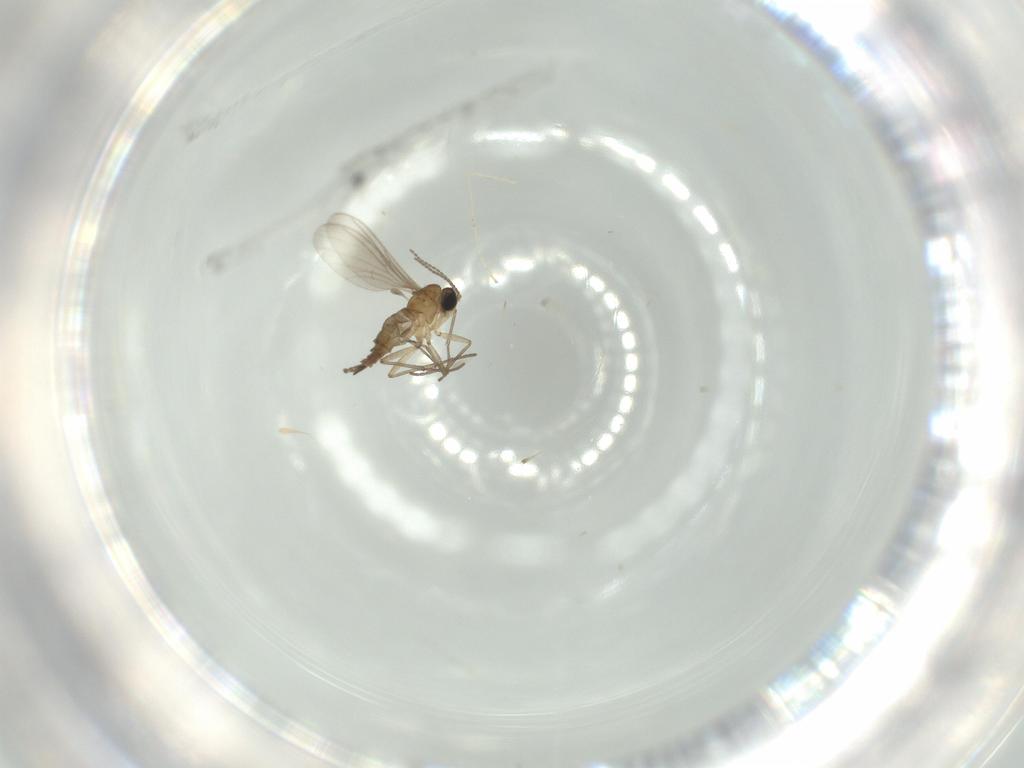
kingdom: Animalia
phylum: Arthropoda
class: Insecta
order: Diptera
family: Sciaridae
